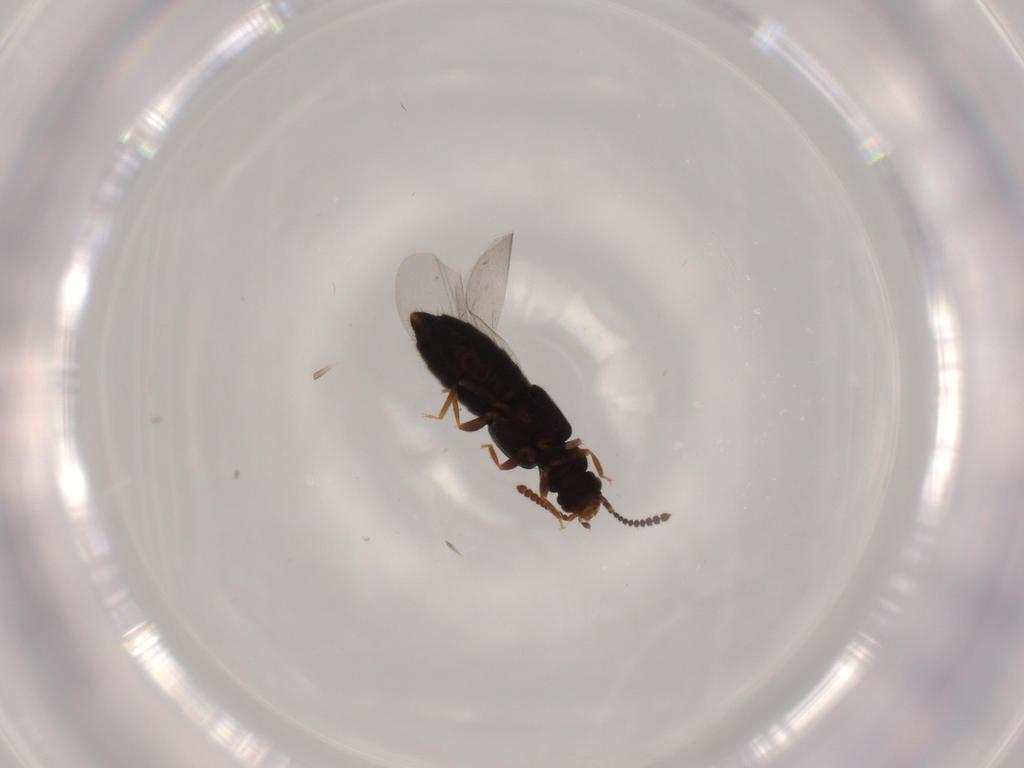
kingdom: Animalia
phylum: Arthropoda
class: Insecta
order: Coleoptera
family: Staphylinidae
